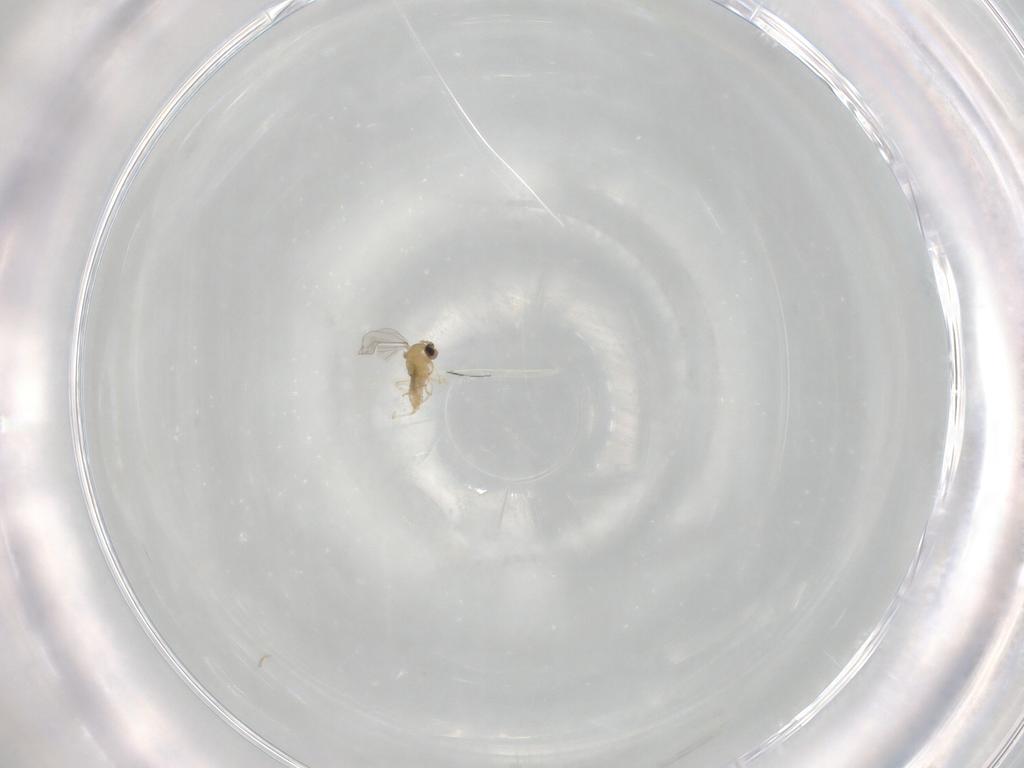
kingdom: Animalia
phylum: Arthropoda
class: Insecta
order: Diptera
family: Cecidomyiidae
